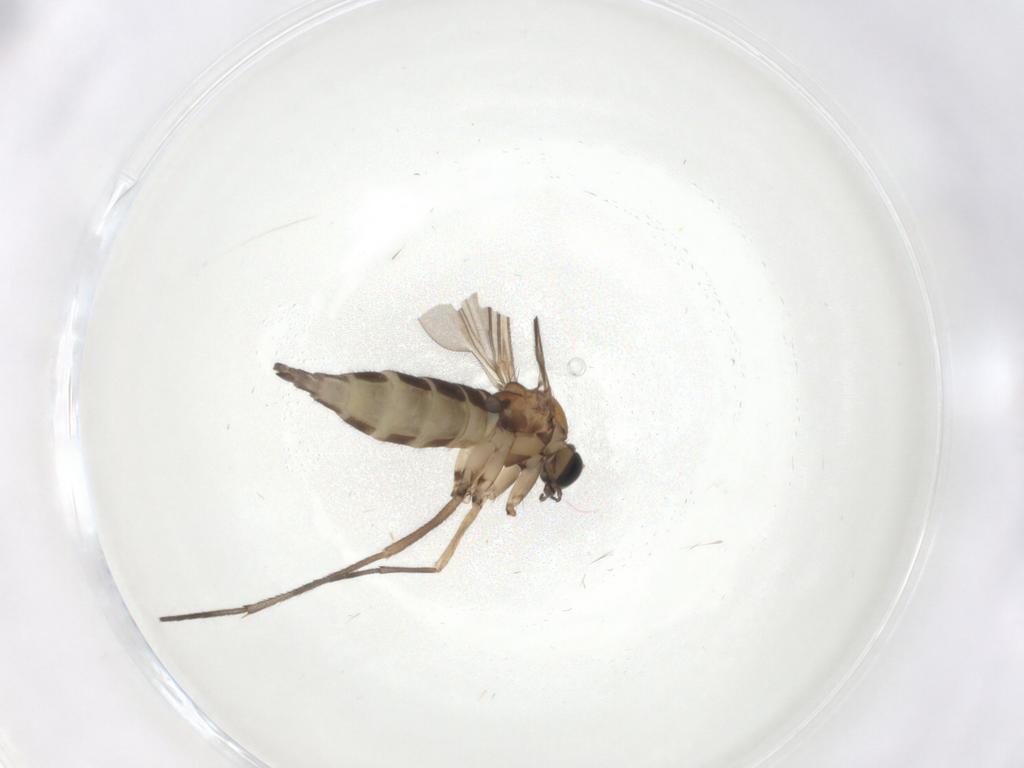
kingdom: Animalia
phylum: Arthropoda
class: Insecta
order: Diptera
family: Sciaridae
